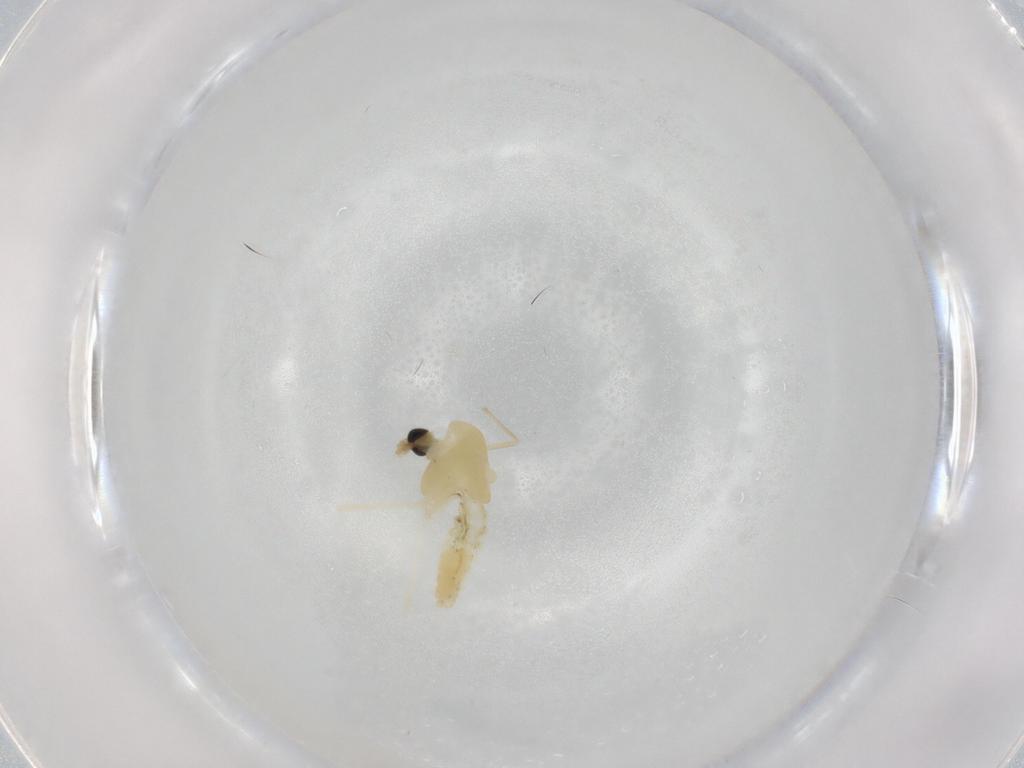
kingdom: Animalia
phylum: Arthropoda
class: Insecta
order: Diptera
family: Chironomidae
